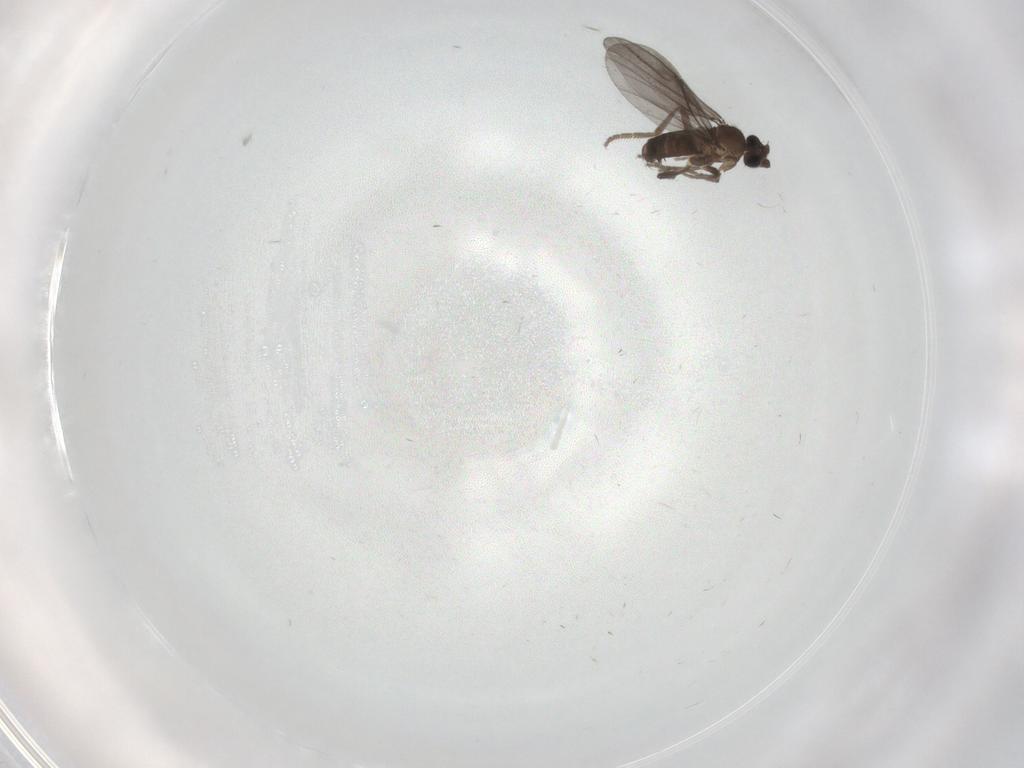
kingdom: Animalia
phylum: Arthropoda
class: Insecta
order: Diptera
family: Phoridae
